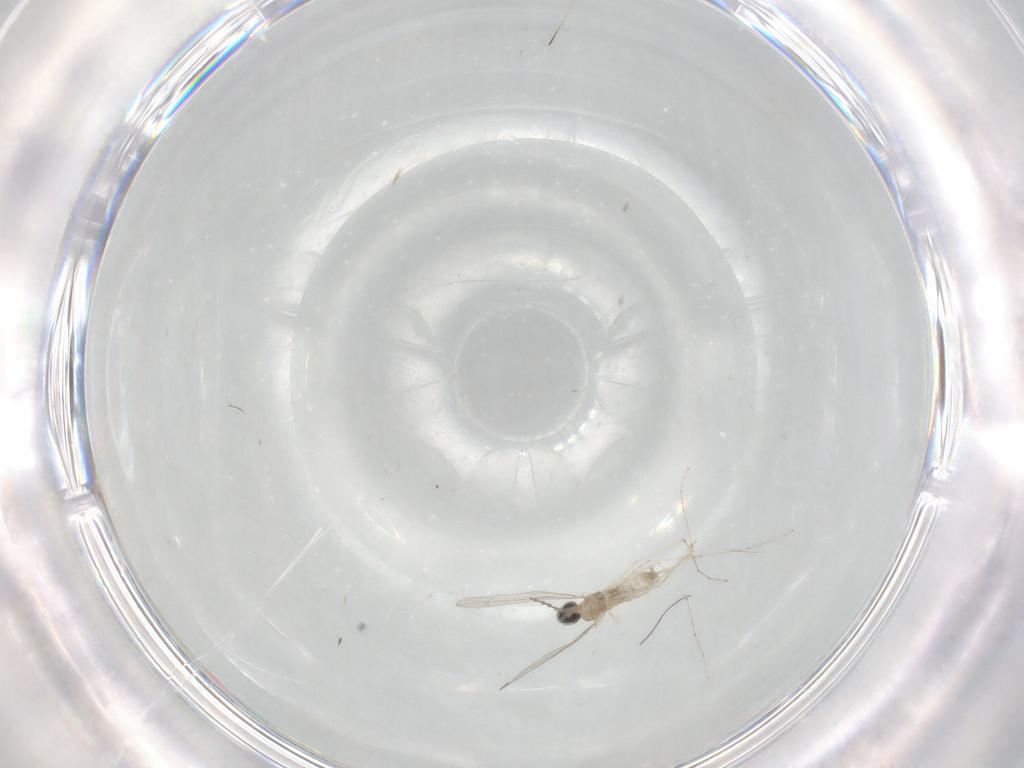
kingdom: Animalia
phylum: Arthropoda
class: Insecta
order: Diptera
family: Cecidomyiidae
